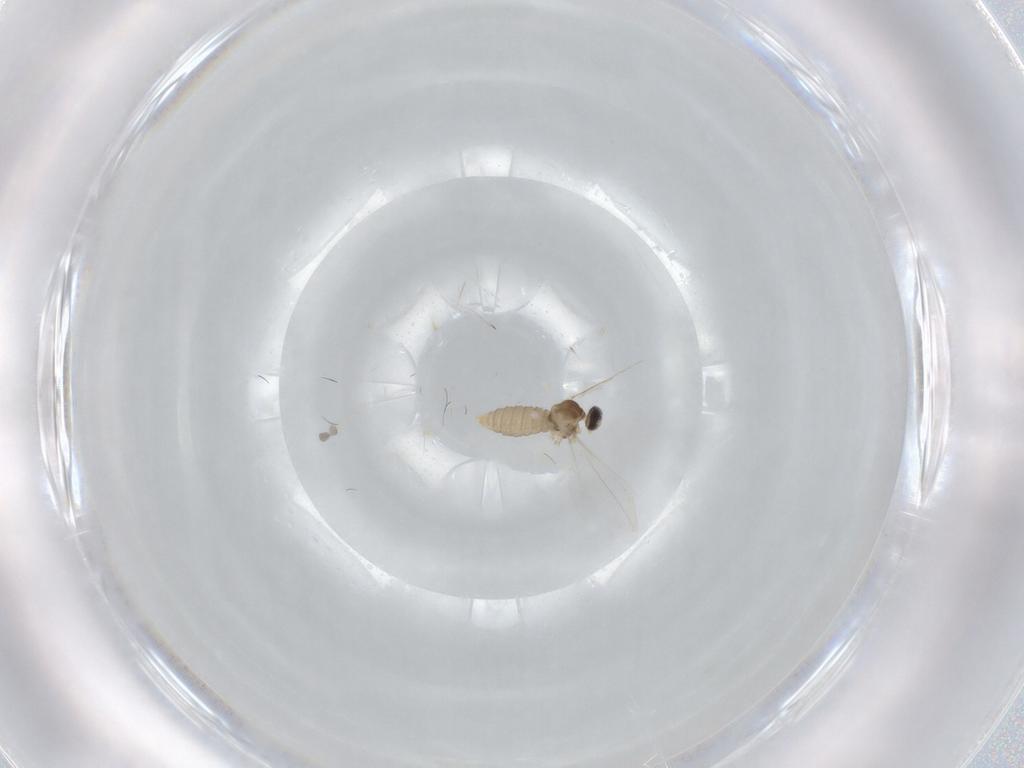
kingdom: Animalia
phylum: Arthropoda
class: Insecta
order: Diptera
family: Cecidomyiidae
